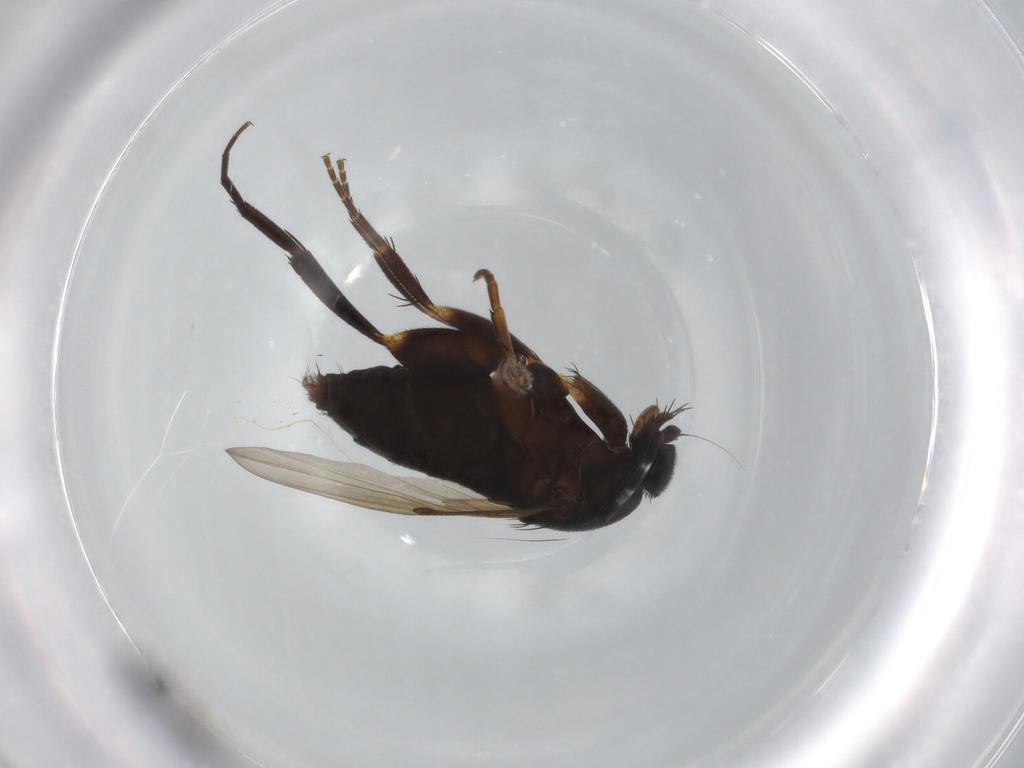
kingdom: Animalia
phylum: Arthropoda
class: Insecta
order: Diptera
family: Phoridae
